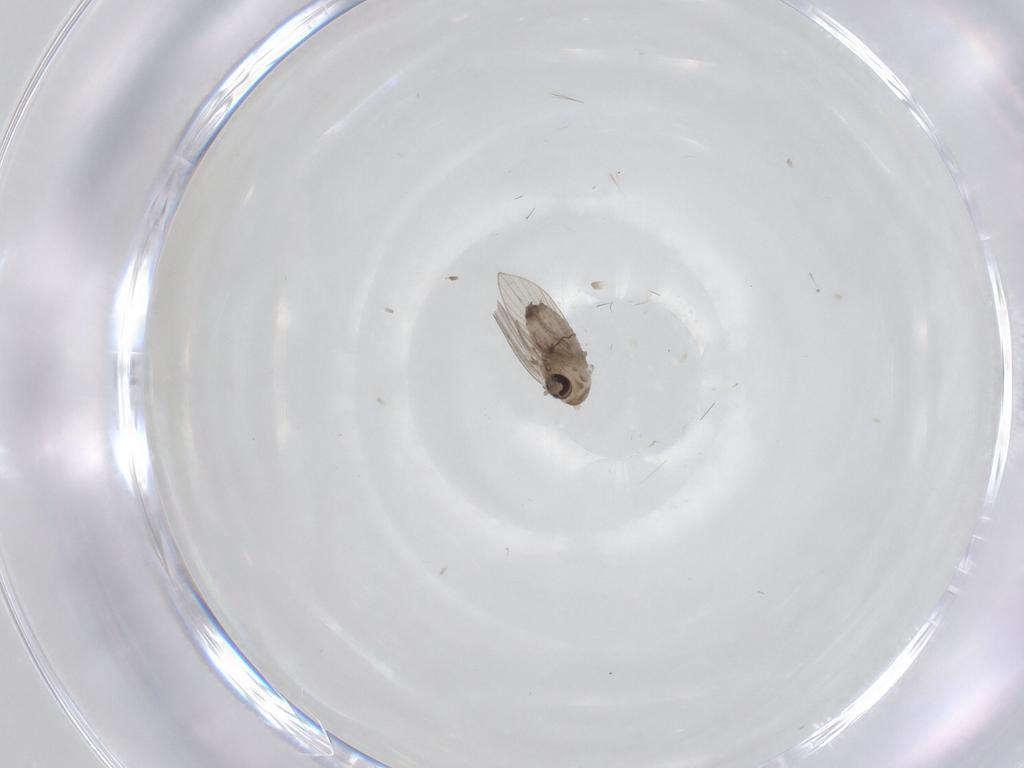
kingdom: Animalia
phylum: Arthropoda
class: Insecta
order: Diptera
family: Psychodidae
